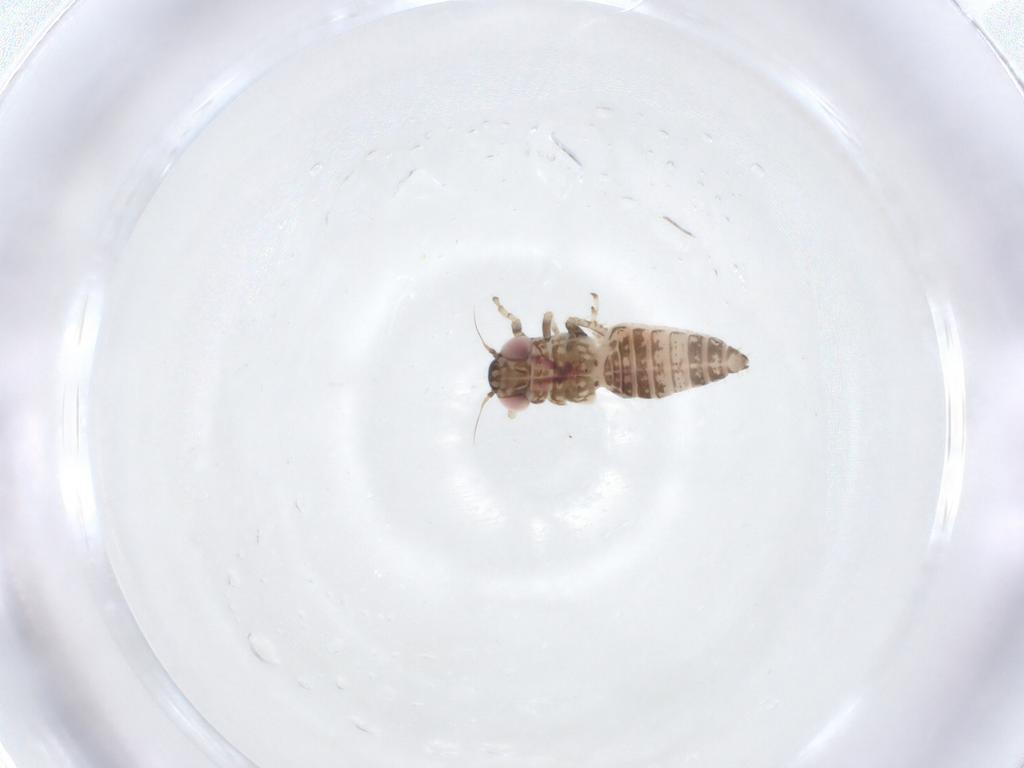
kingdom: Animalia
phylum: Arthropoda
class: Insecta
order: Hemiptera
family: Cicadellidae
